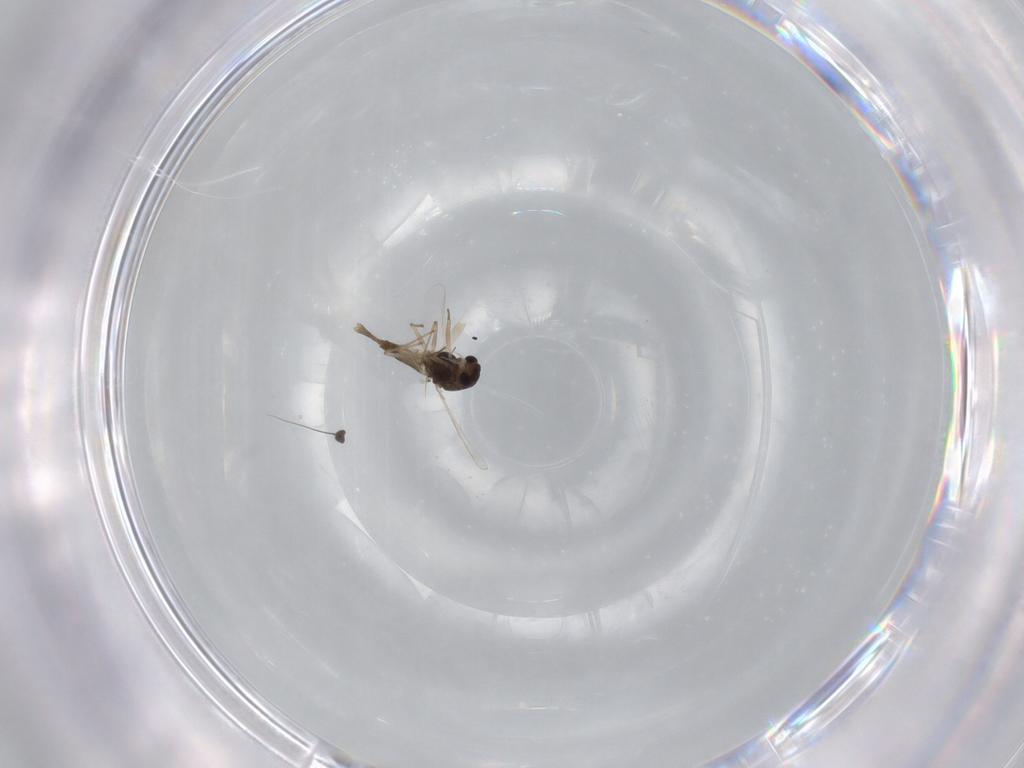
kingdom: Animalia
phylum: Arthropoda
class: Insecta
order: Diptera
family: Chironomidae
